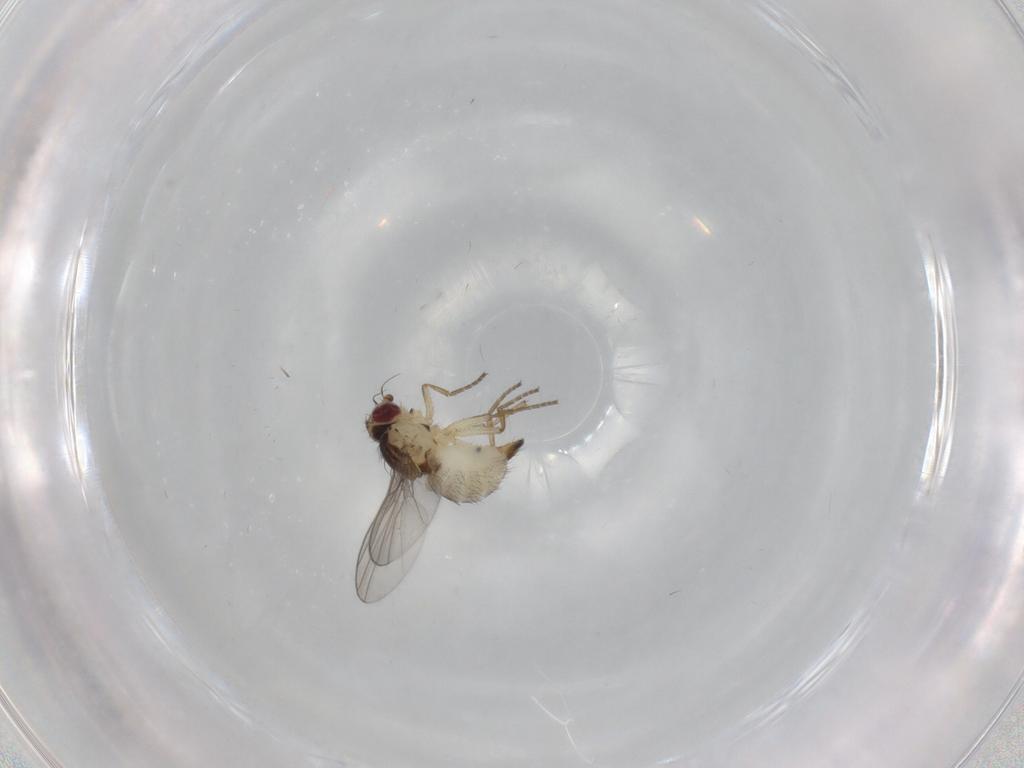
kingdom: Animalia
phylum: Arthropoda
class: Insecta
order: Diptera
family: Agromyzidae
